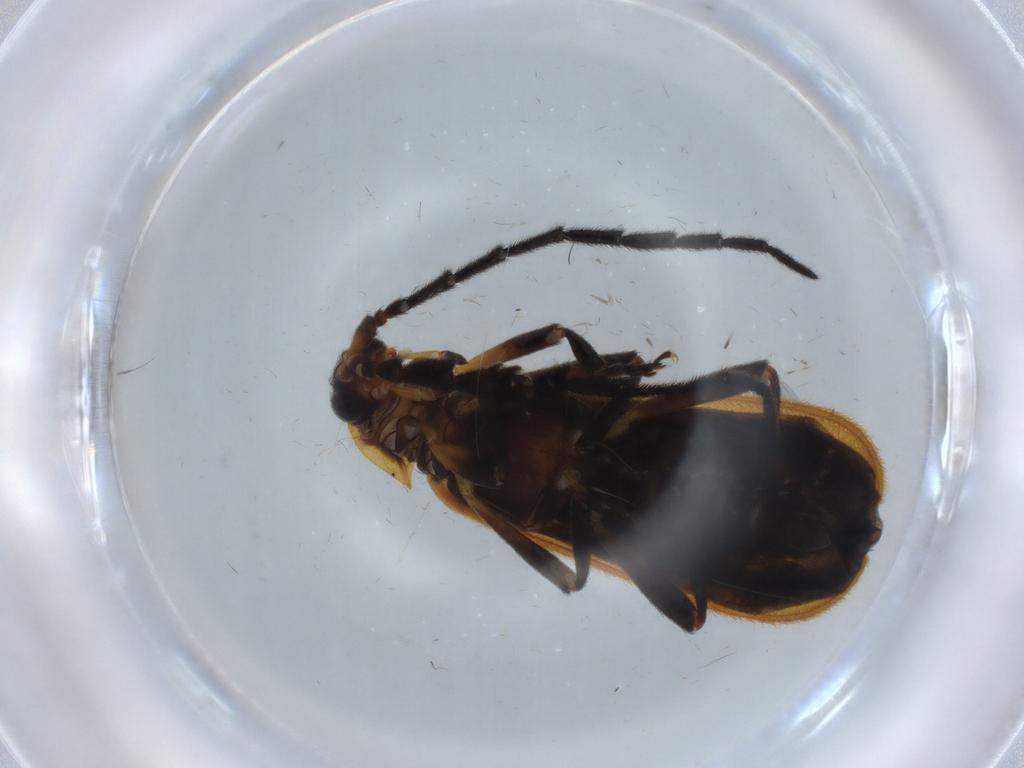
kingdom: Animalia
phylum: Arthropoda
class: Insecta
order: Coleoptera
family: Lycidae
